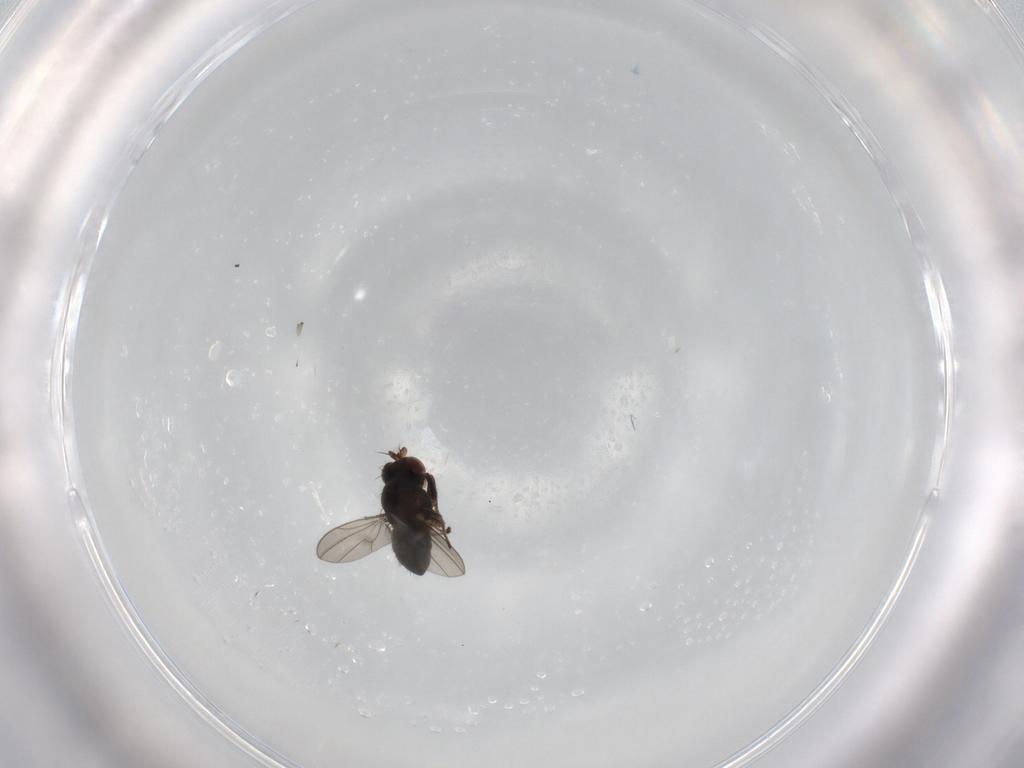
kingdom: Animalia
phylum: Arthropoda
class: Insecta
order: Diptera
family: Ephydridae
